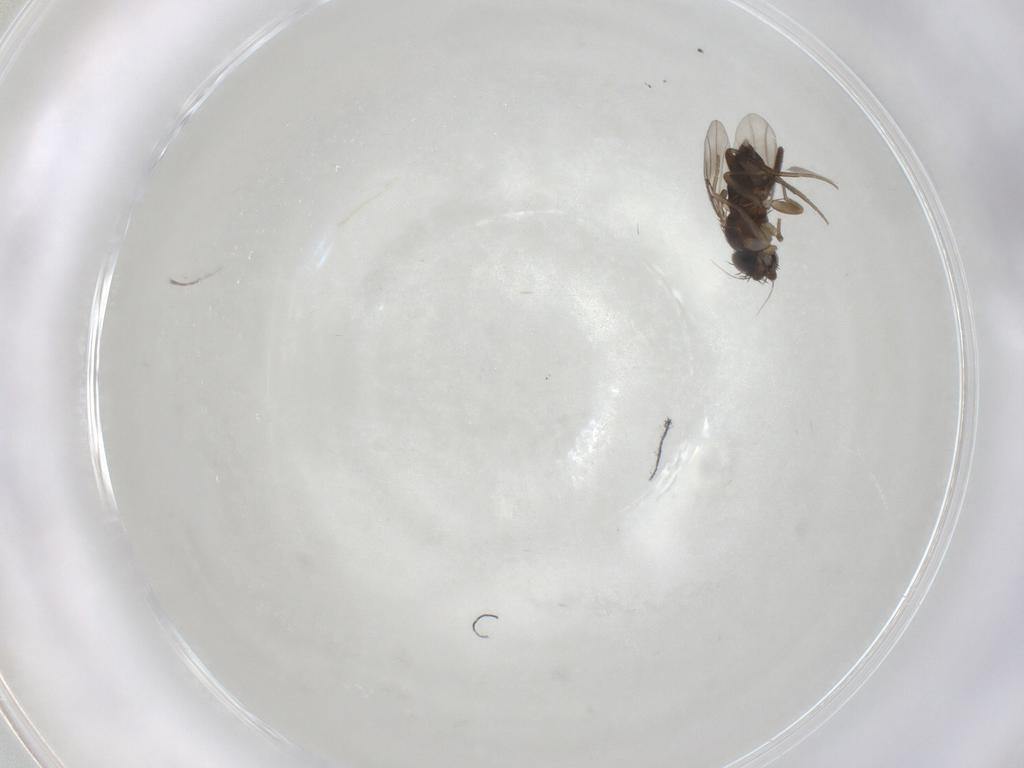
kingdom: Animalia
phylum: Arthropoda
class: Insecta
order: Diptera
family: Phoridae
